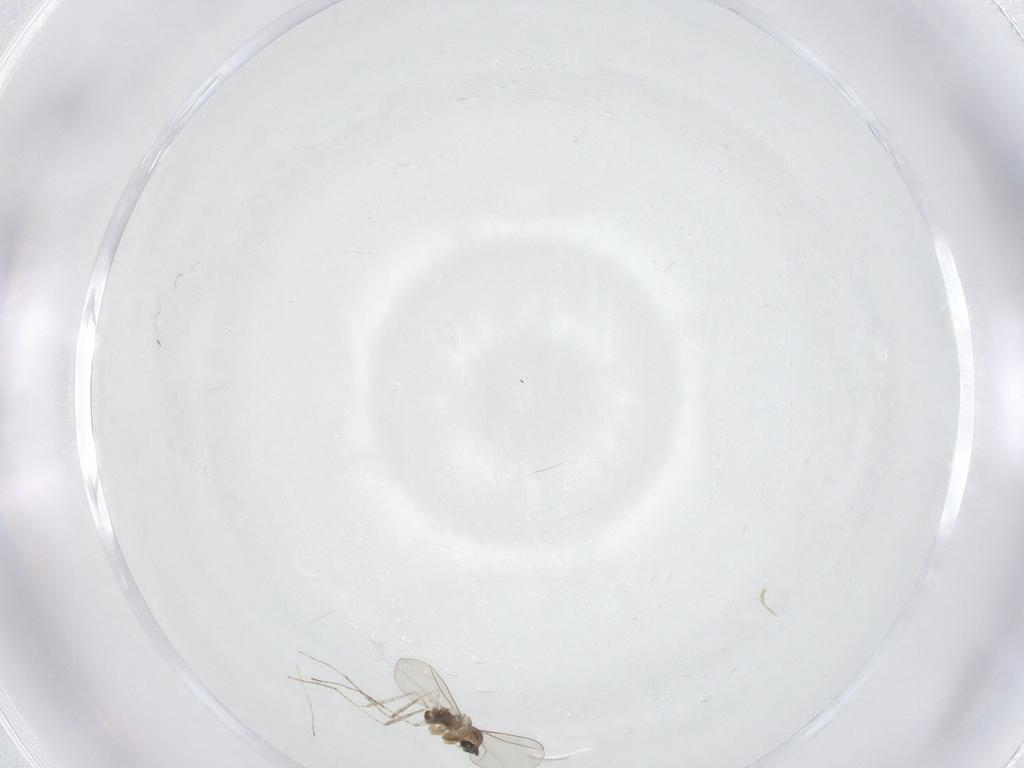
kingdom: Animalia
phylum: Arthropoda
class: Insecta
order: Diptera
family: Cecidomyiidae
